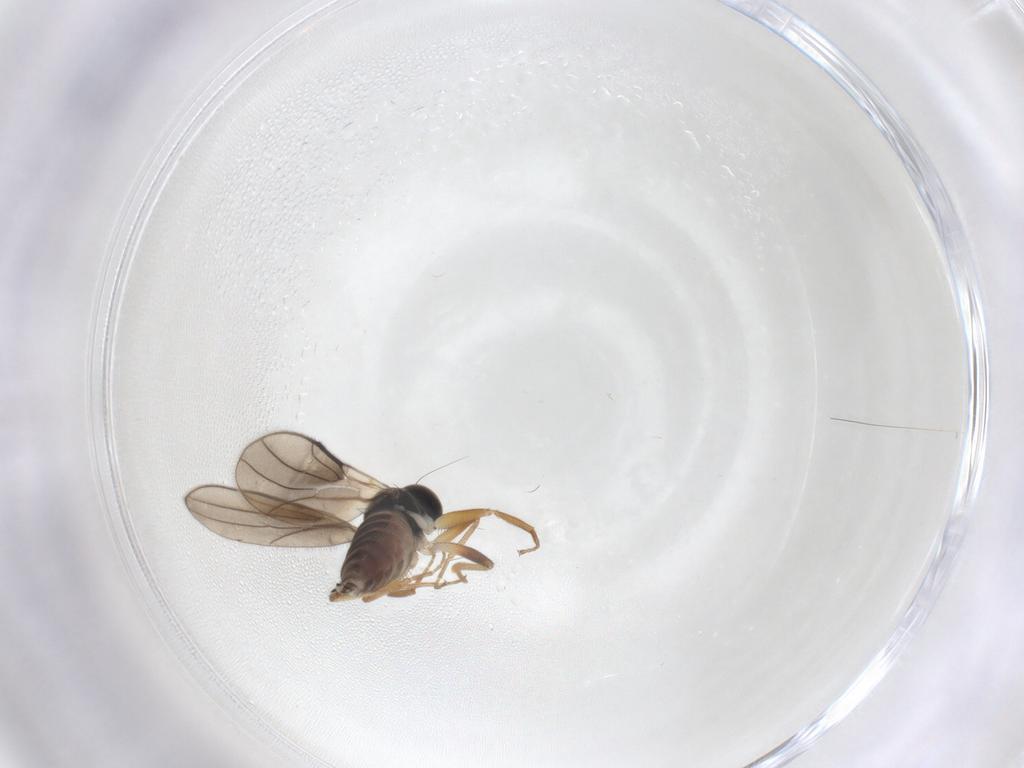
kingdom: Animalia
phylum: Arthropoda
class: Insecta
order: Diptera
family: Hybotidae
